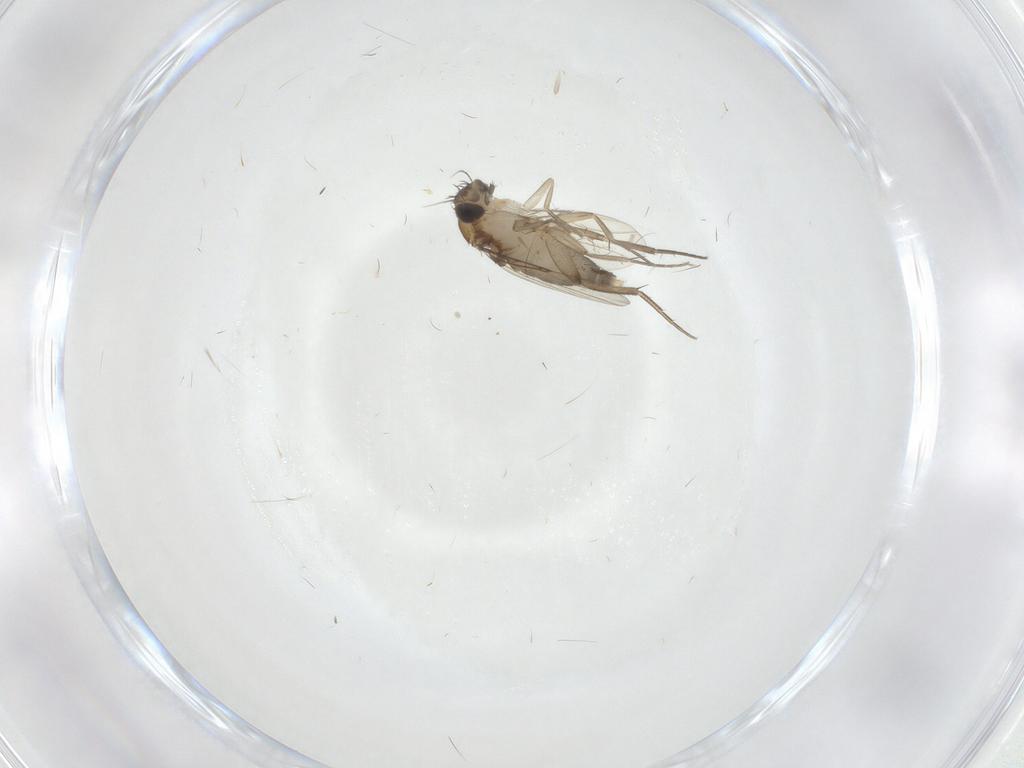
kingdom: Animalia
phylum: Arthropoda
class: Insecta
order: Diptera
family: Phoridae
